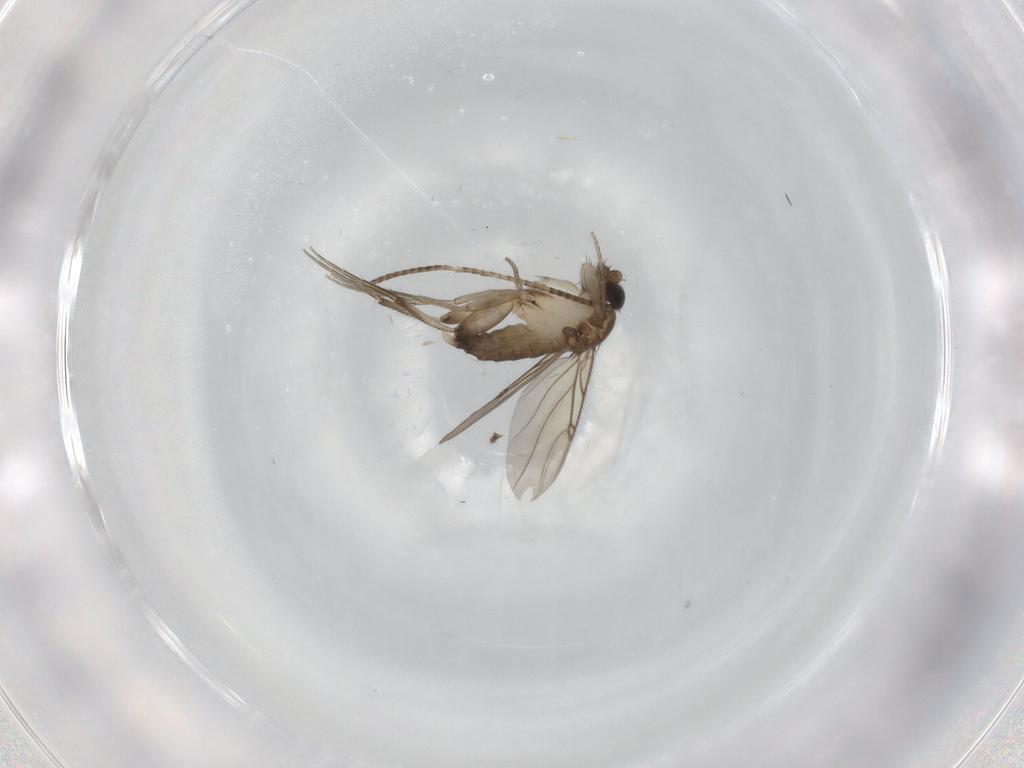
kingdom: Animalia
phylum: Arthropoda
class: Insecta
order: Diptera
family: Phoridae
